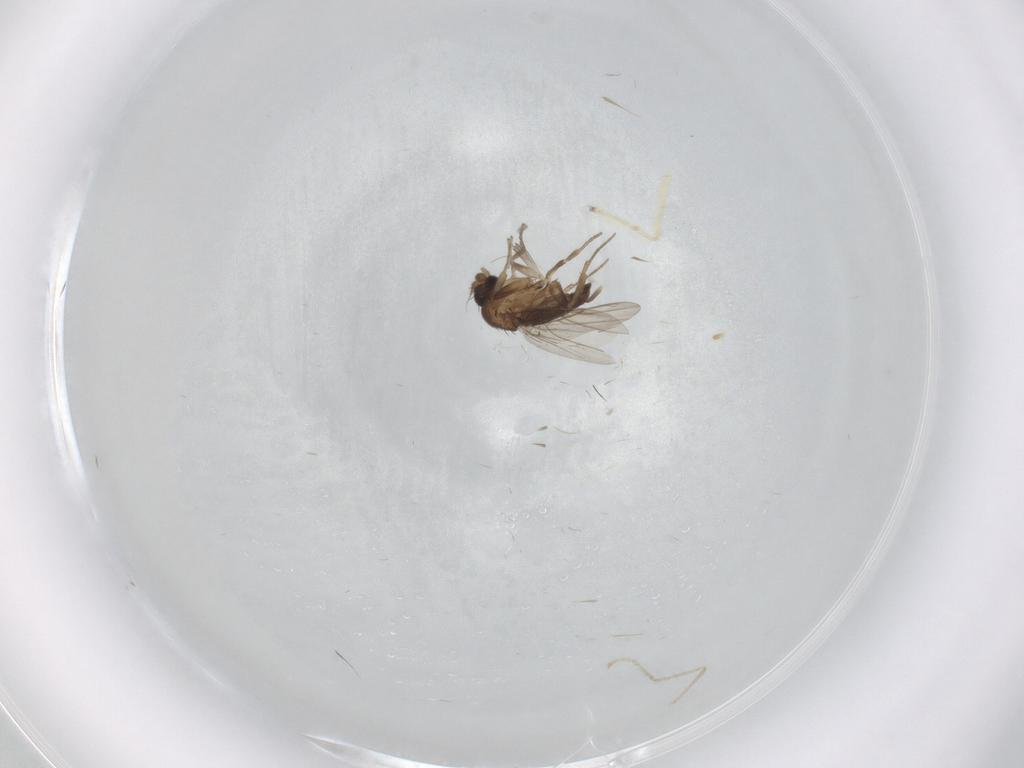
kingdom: Animalia
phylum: Arthropoda
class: Insecta
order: Diptera
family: Phoridae
